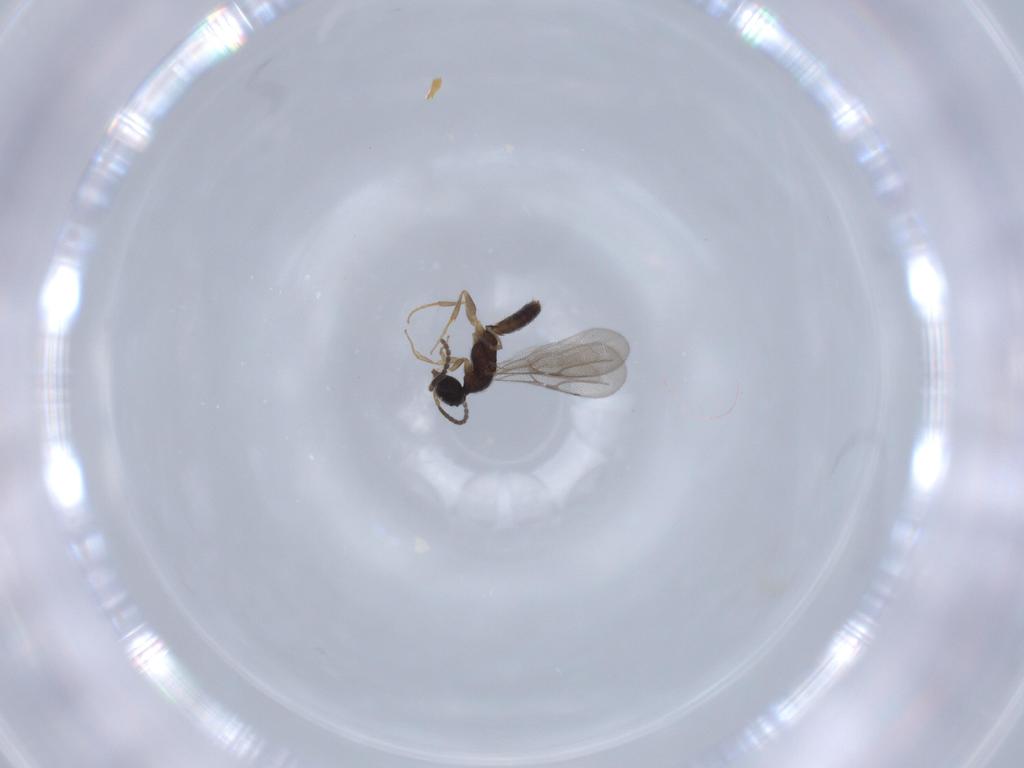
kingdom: Animalia
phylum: Arthropoda
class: Insecta
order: Hymenoptera
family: Bethylidae
